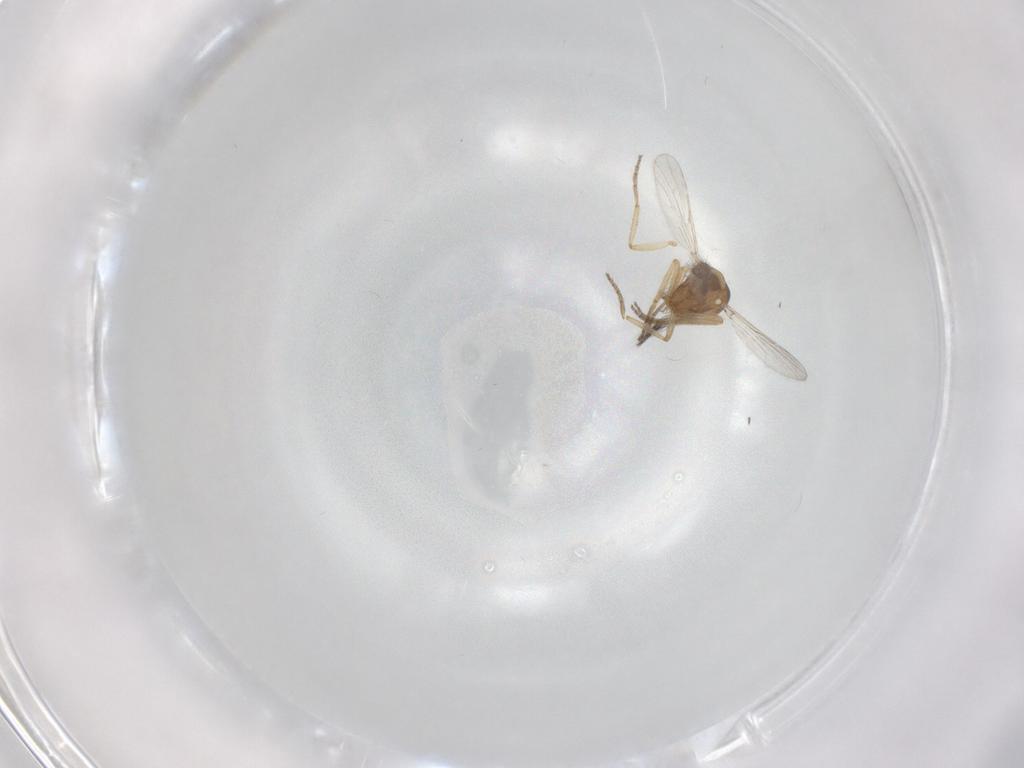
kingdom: Animalia
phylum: Arthropoda
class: Insecta
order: Diptera
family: Ceratopogonidae
